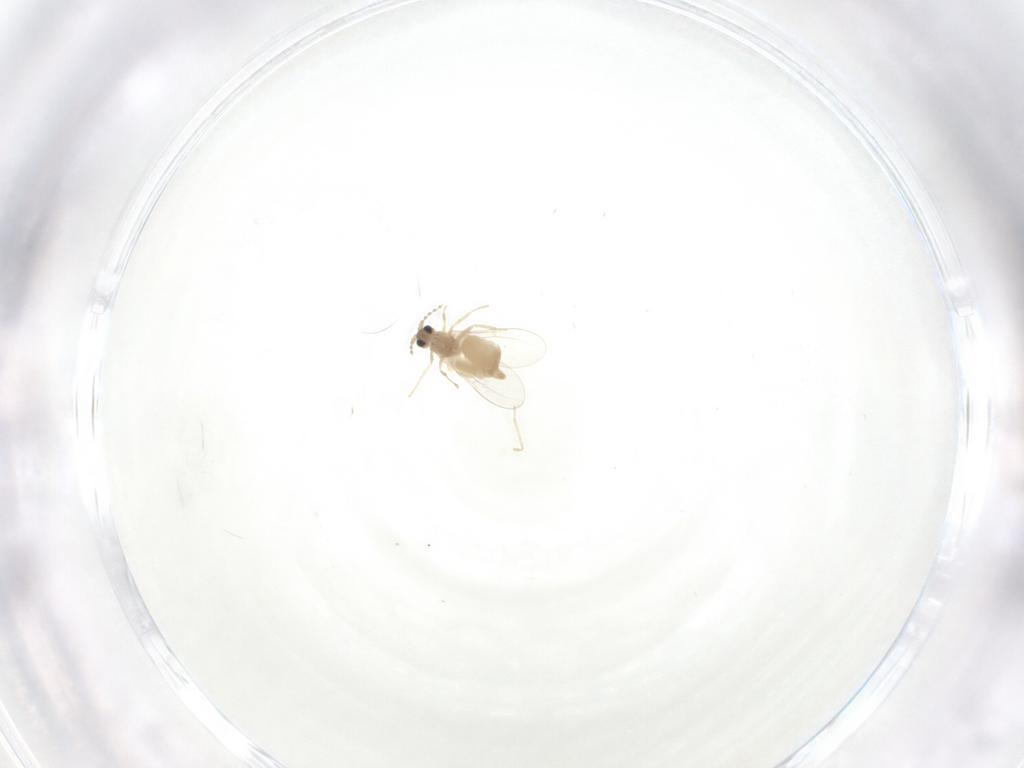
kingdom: Animalia
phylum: Arthropoda
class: Insecta
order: Diptera
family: Cecidomyiidae
